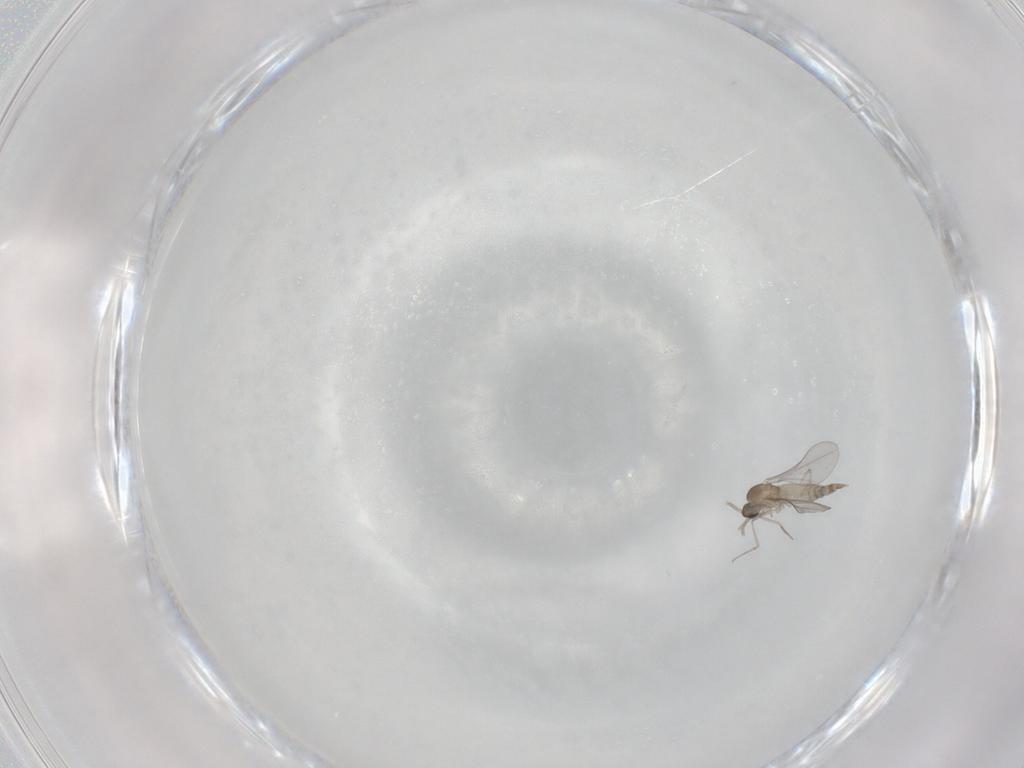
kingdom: Animalia
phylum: Arthropoda
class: Insecta
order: Diptera
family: Cecidomyiidae
